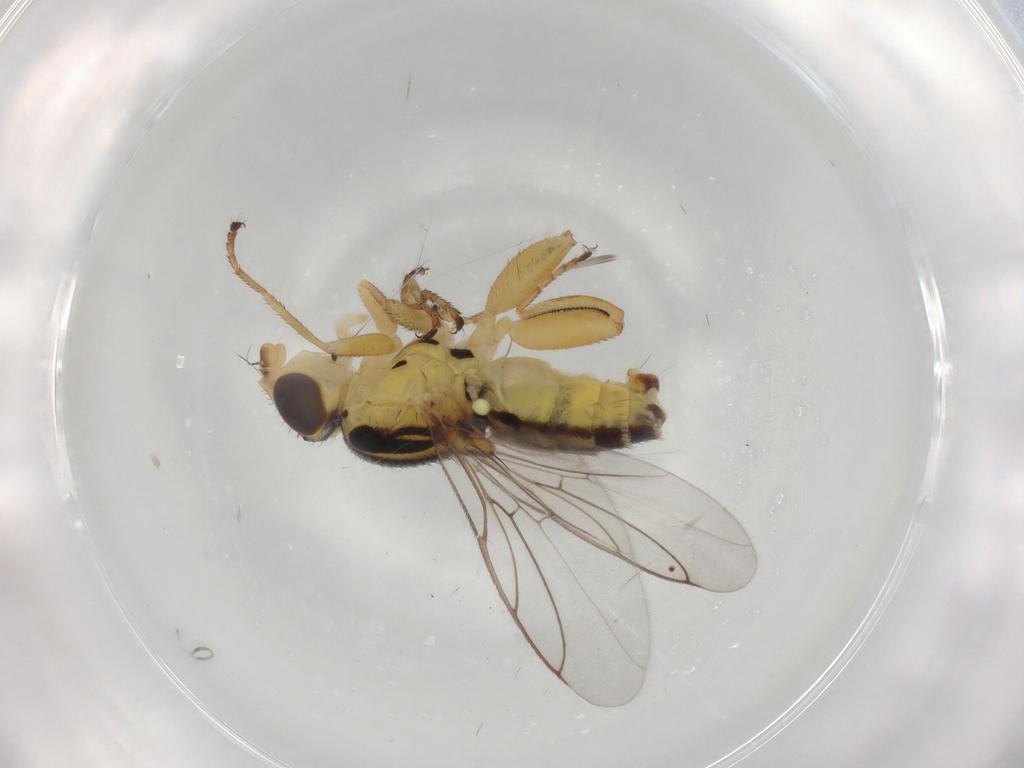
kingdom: Animalia
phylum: Arthropoda
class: Insecta
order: Diptera
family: Chloropidae
